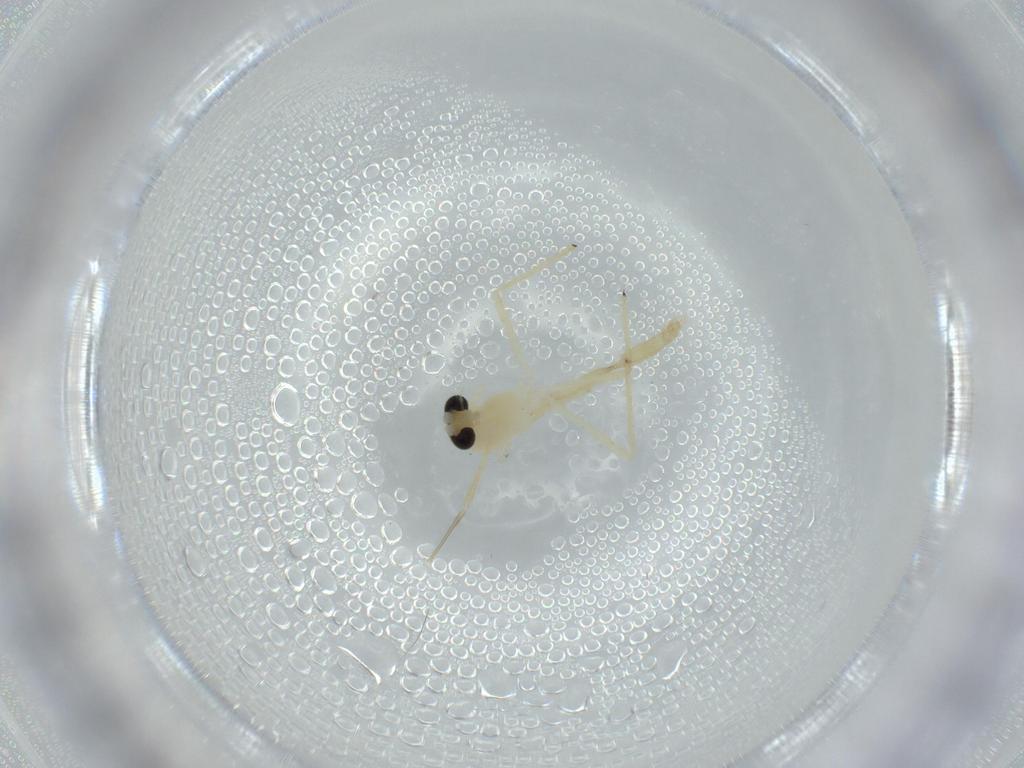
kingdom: Animalia
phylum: Arthropoda
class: Insecta
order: Diptera
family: Chironomidae
